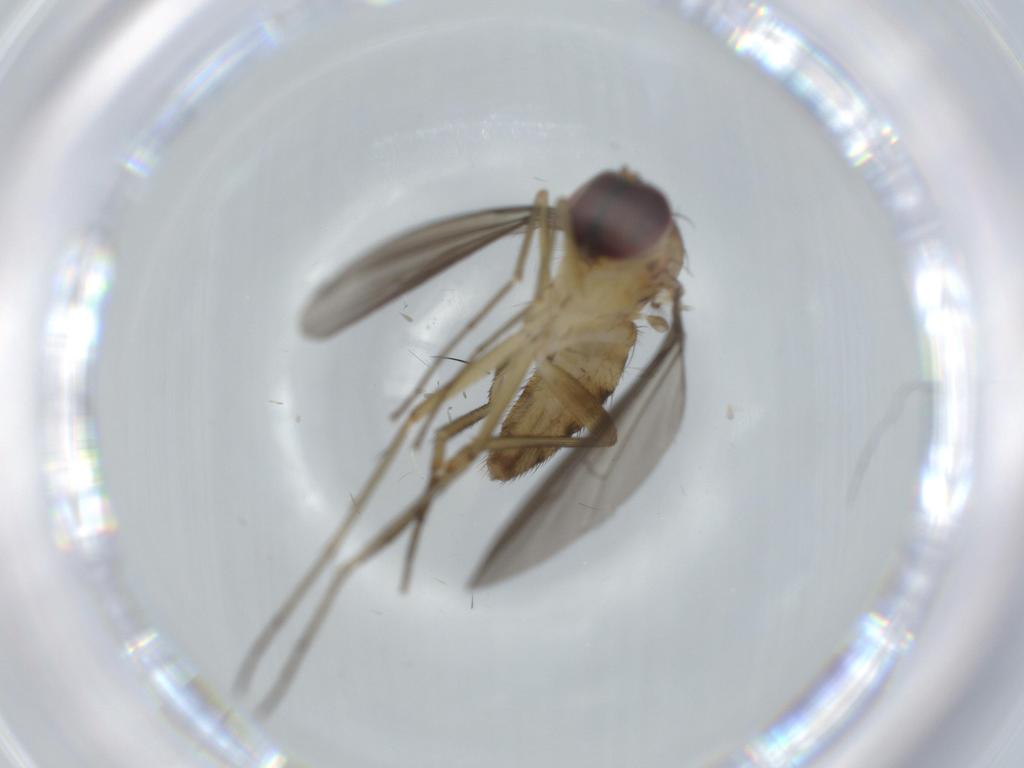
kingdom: Animalia
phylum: Arthropoda
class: Insecta
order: Diptera
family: Dolichopodidae
